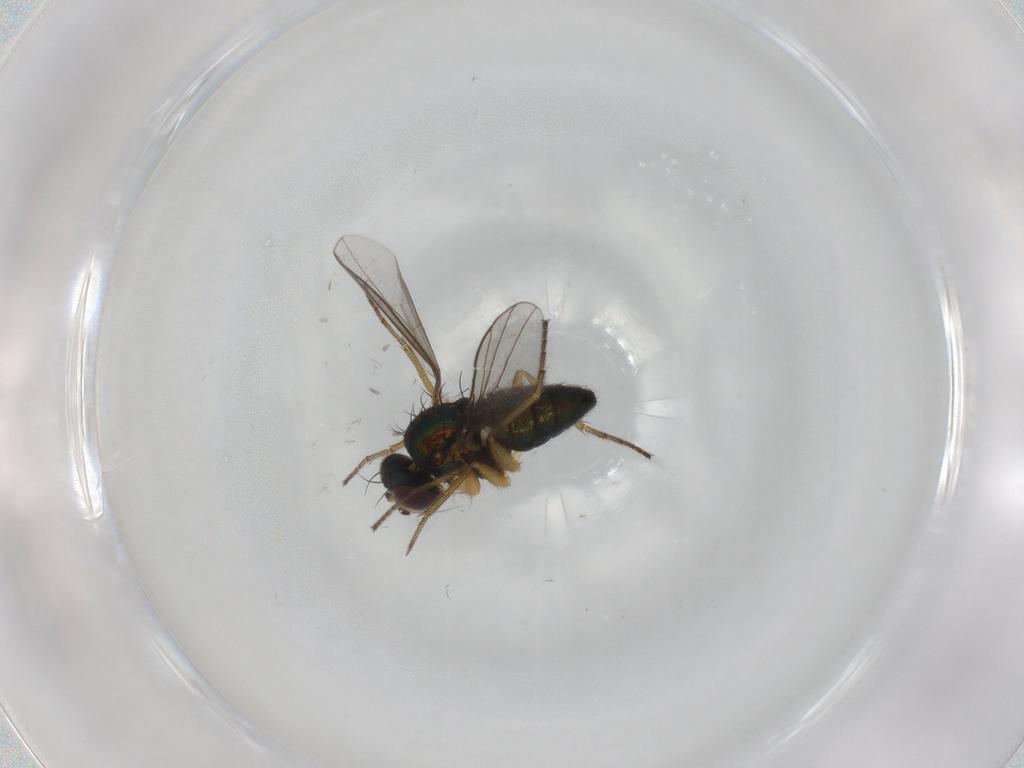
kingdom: Animalia
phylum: Arthropoda
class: Insecta
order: Diptera
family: Dolichopodidae
